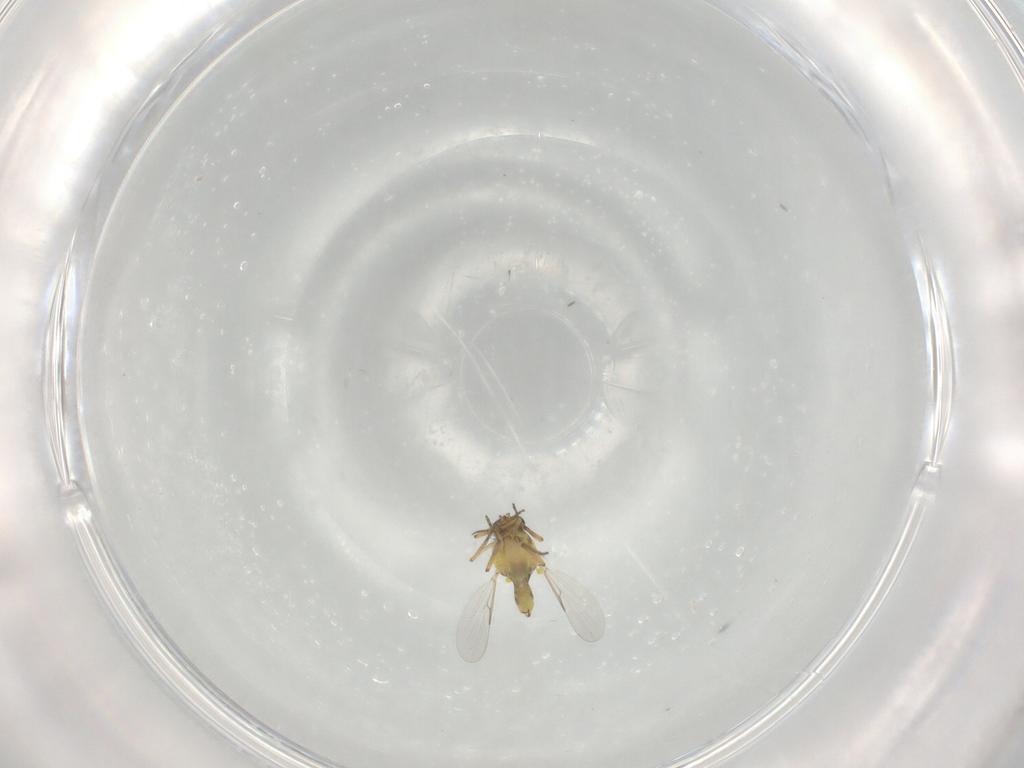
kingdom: Animalia
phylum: Arthropoda
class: Insecta
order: Diptera
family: Ceratopogonidae
